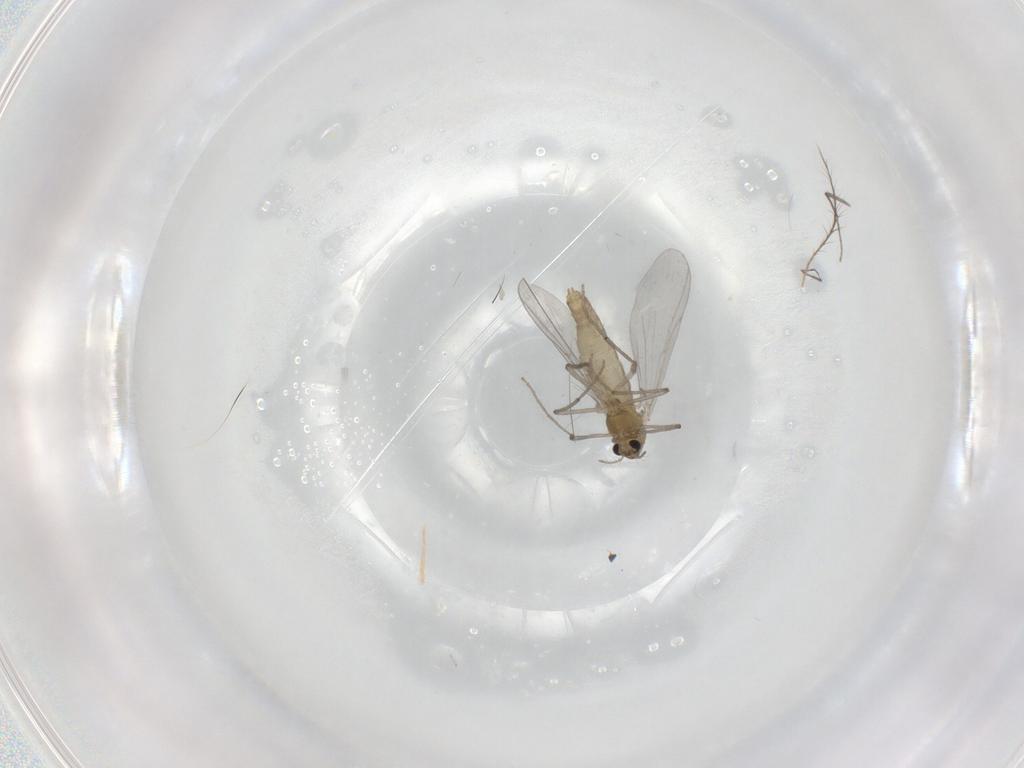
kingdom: Animalia
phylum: Arthropoda
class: Insecta
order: Diptera
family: Chironomidae
